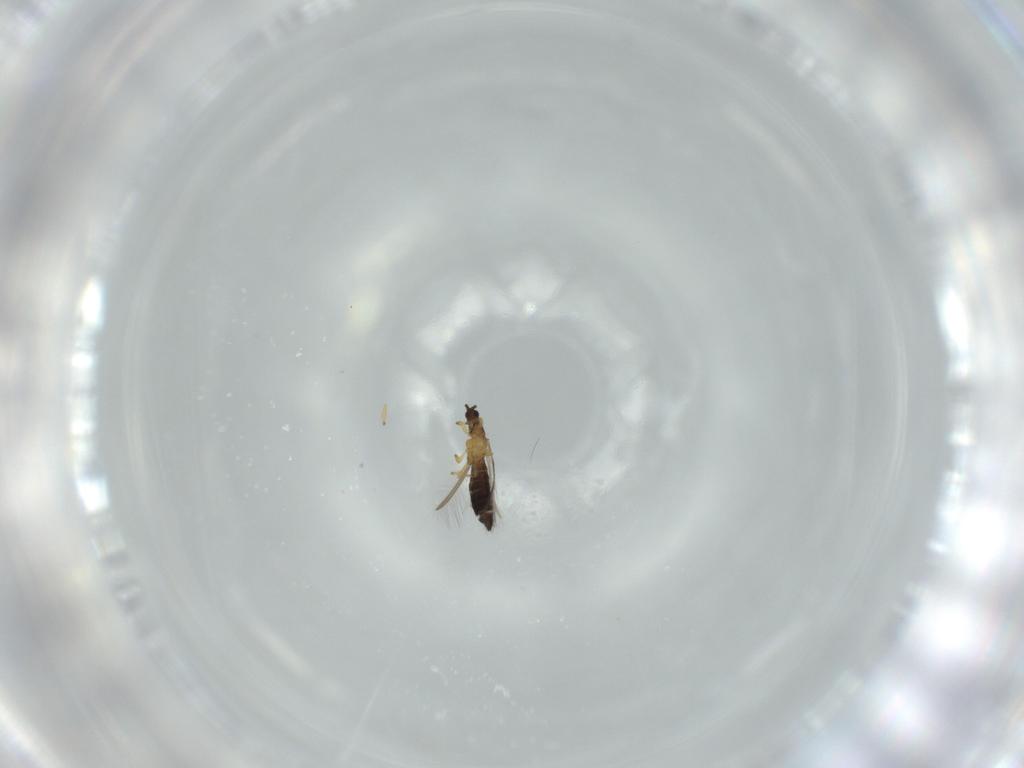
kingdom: Animalia
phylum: Arthropoda
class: Insecta
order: Thysanoptera
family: Thripidae
